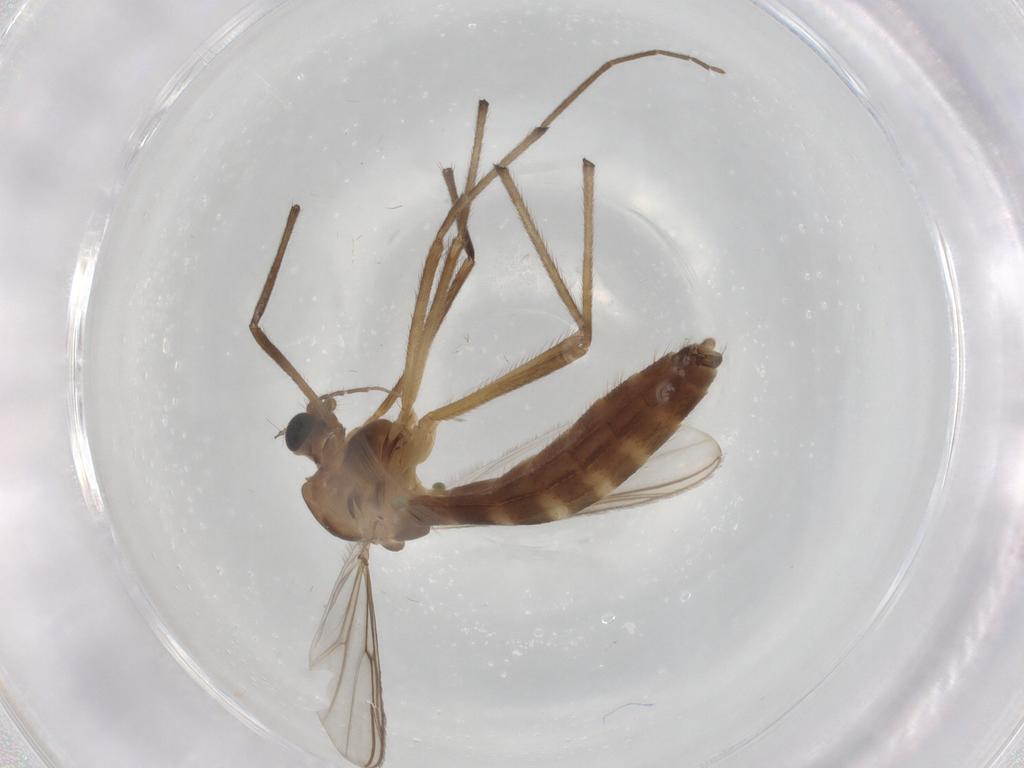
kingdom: Animalia
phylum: Arthropoda
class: Insecta
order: Diptera
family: Chironomidae
